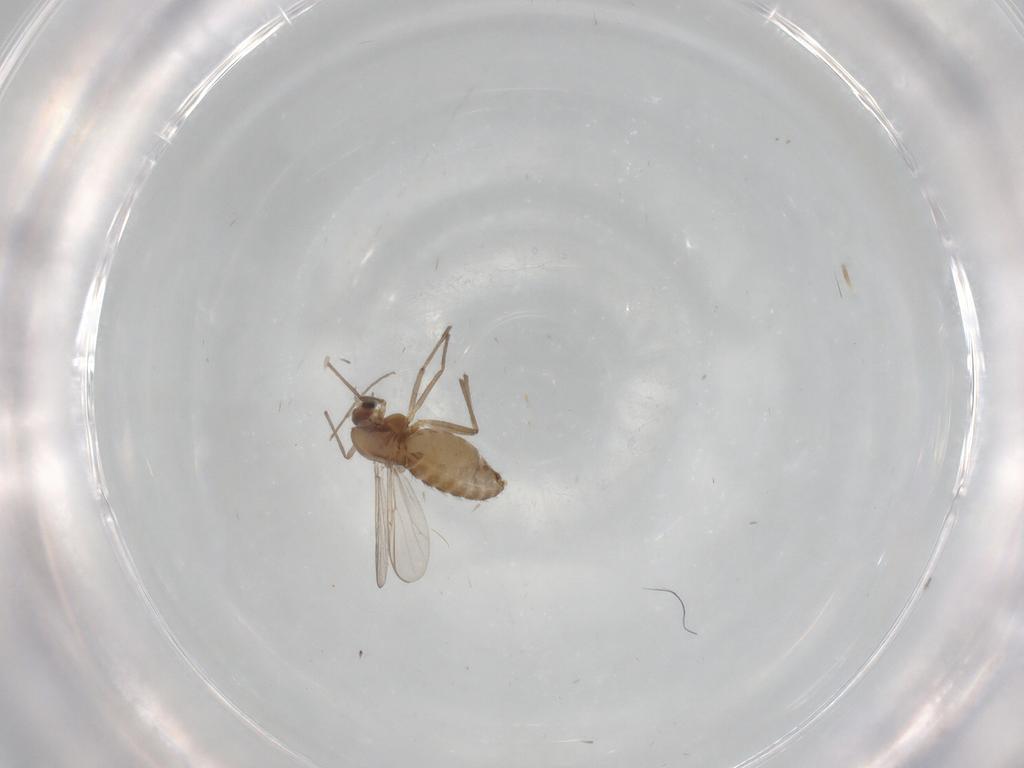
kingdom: Animalia
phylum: Arthropoda
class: Insecta
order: Diptera
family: Chironomidae
